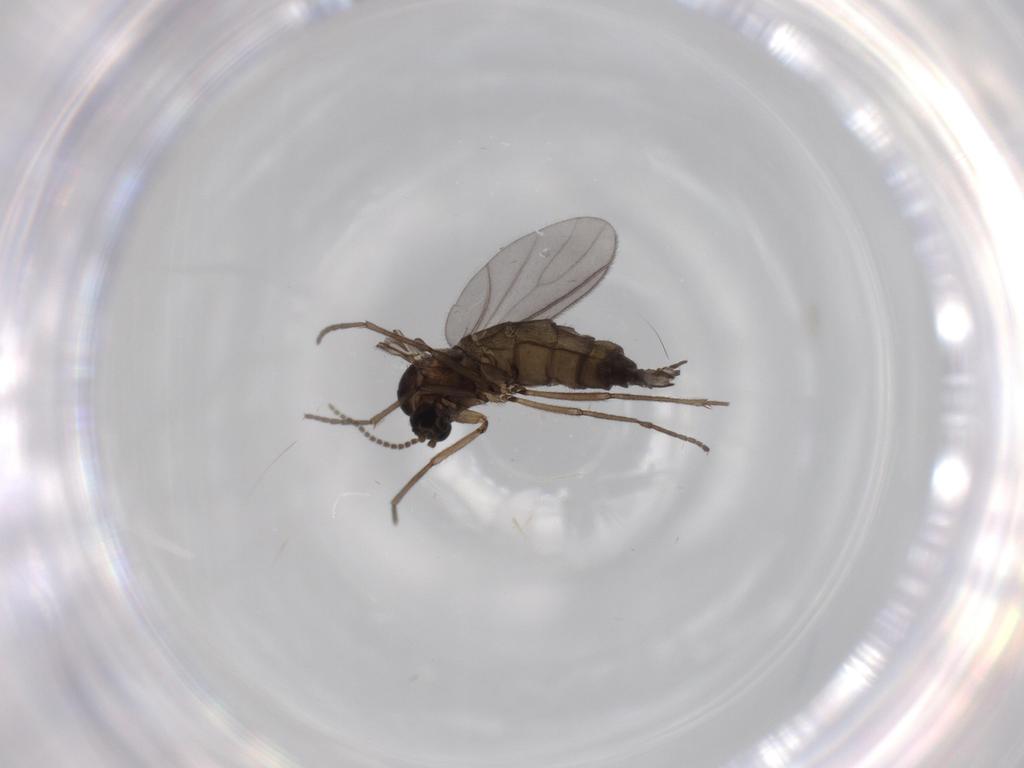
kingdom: Animalia
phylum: Arthropoda
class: Insecta
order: Diptera
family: Sciaridae
